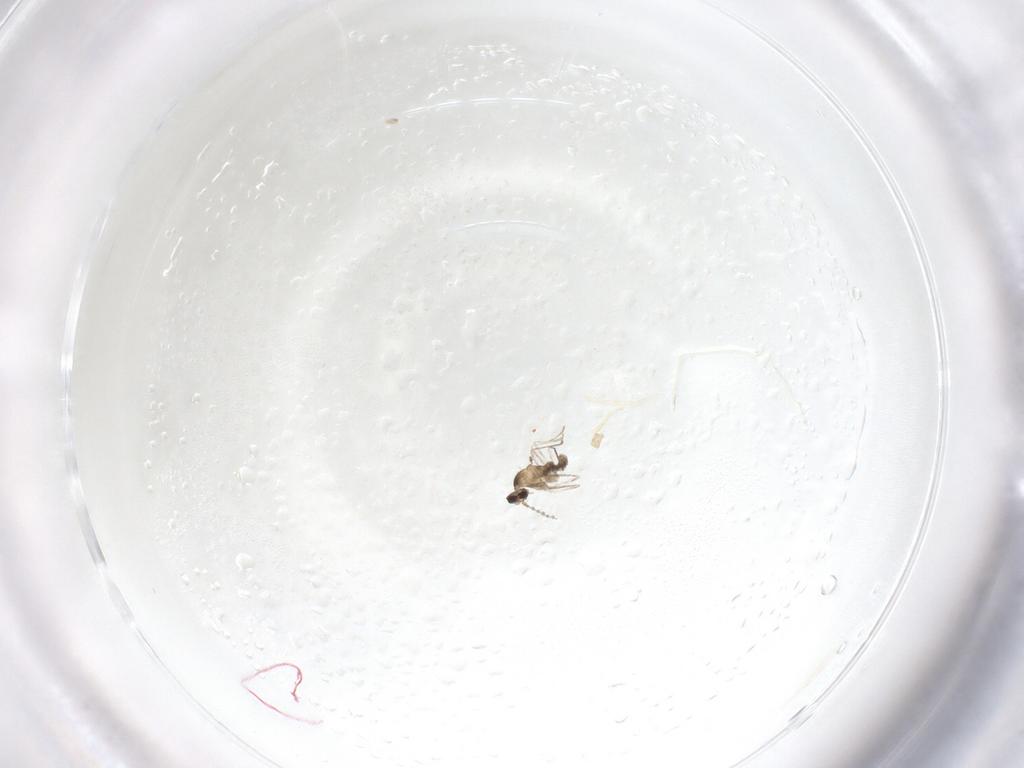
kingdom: Animalia
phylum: Arthropoda
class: Insecta
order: Diptera
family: Cecidomyiidae
